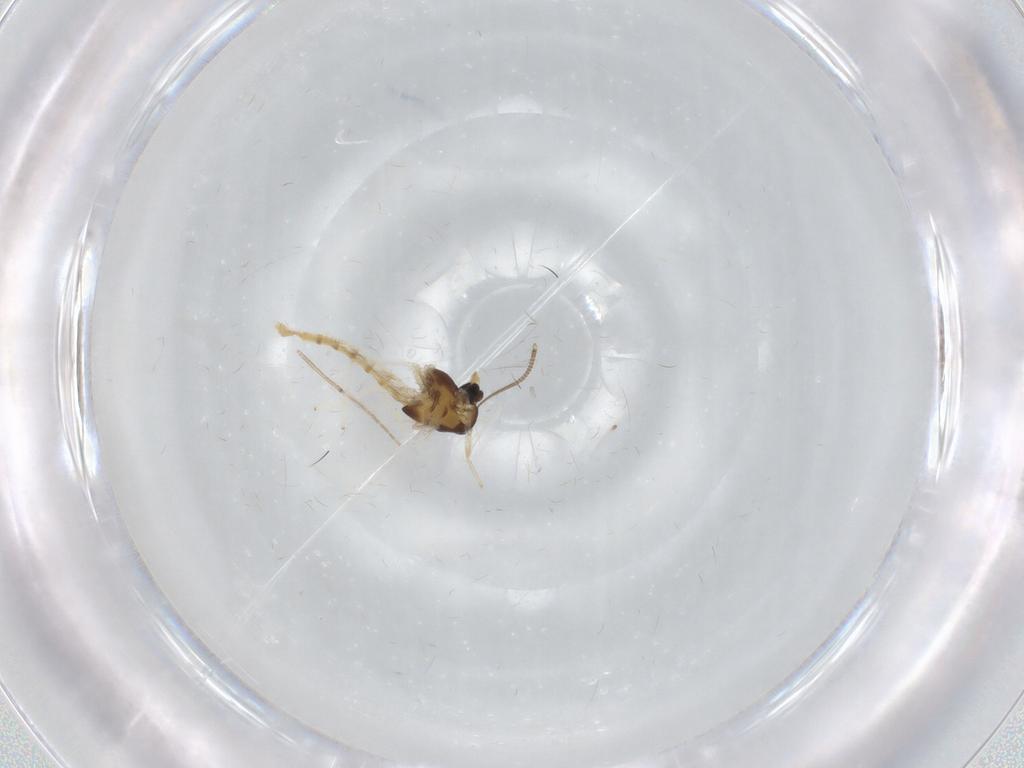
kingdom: Animalia
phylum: Arthropoda
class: Insecta
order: Diptera
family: Chironomidae
